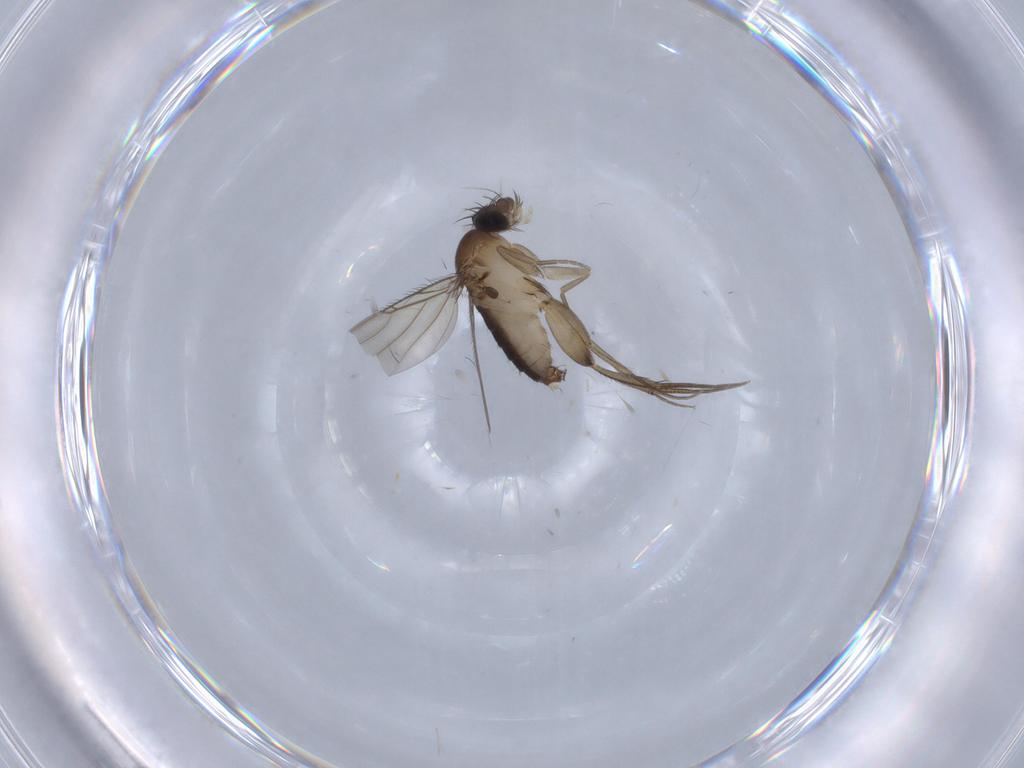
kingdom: Animalia
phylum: Arthropoda
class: Insecta
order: Diptera
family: Phoridae
